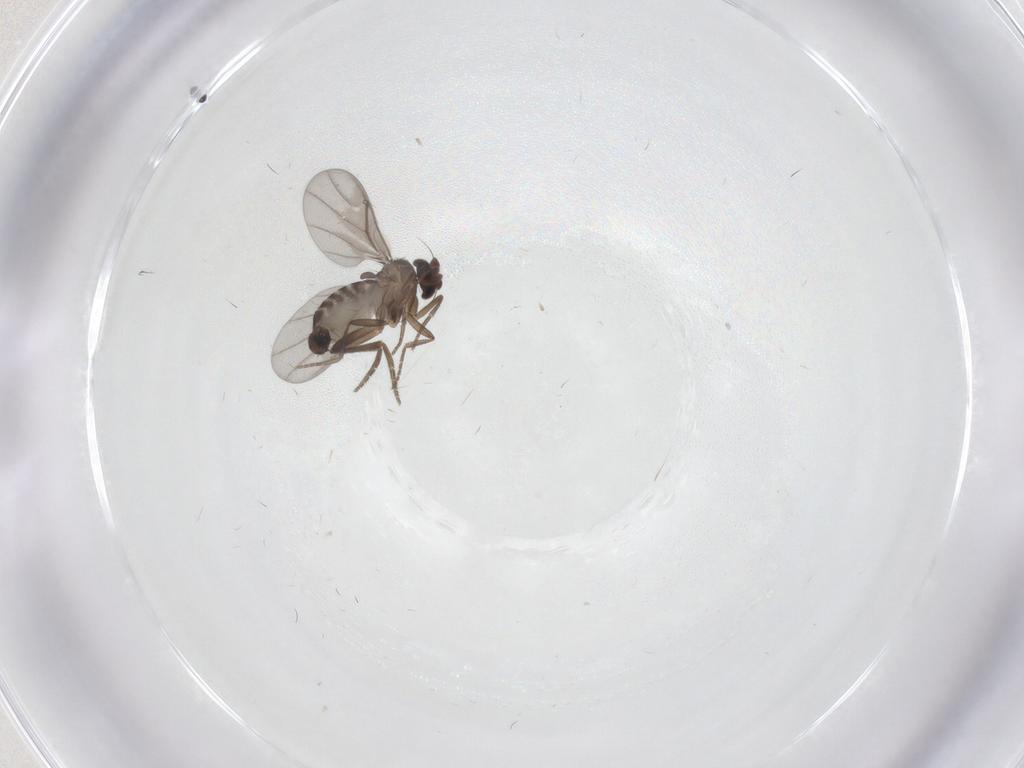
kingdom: Animalia
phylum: Arthropoda
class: Insecta
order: Diptera
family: Cecidomyiidae
